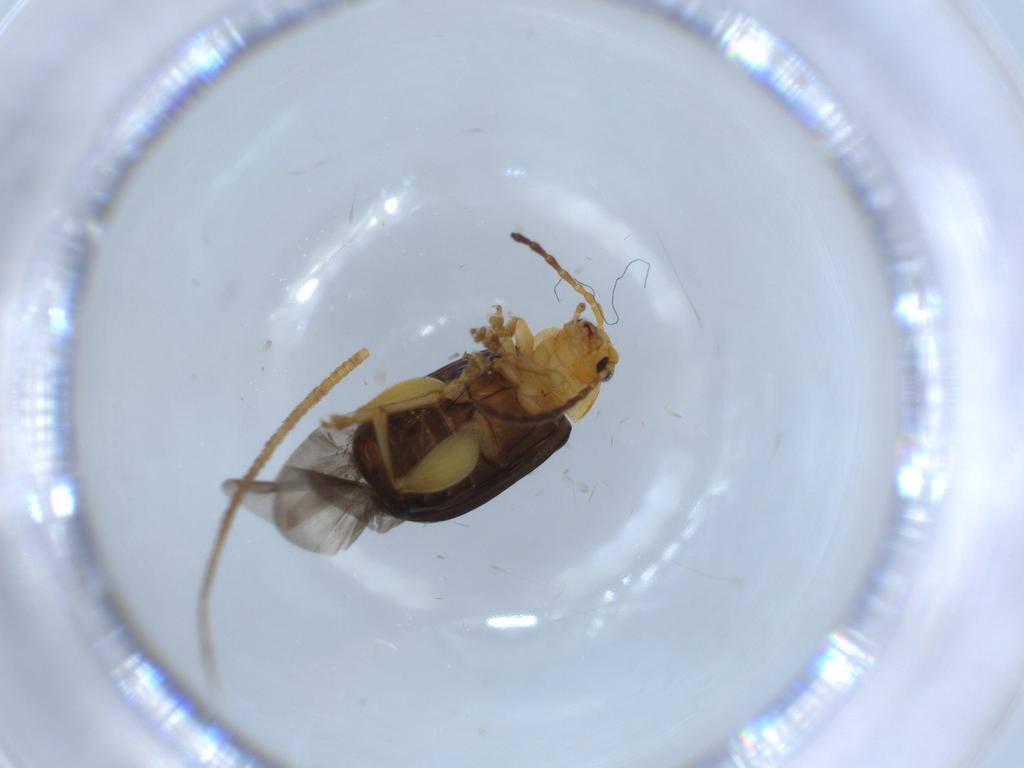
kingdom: Animalia
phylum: Arthropoda
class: Insecta
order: Coleoptera
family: Chrysomelidae
